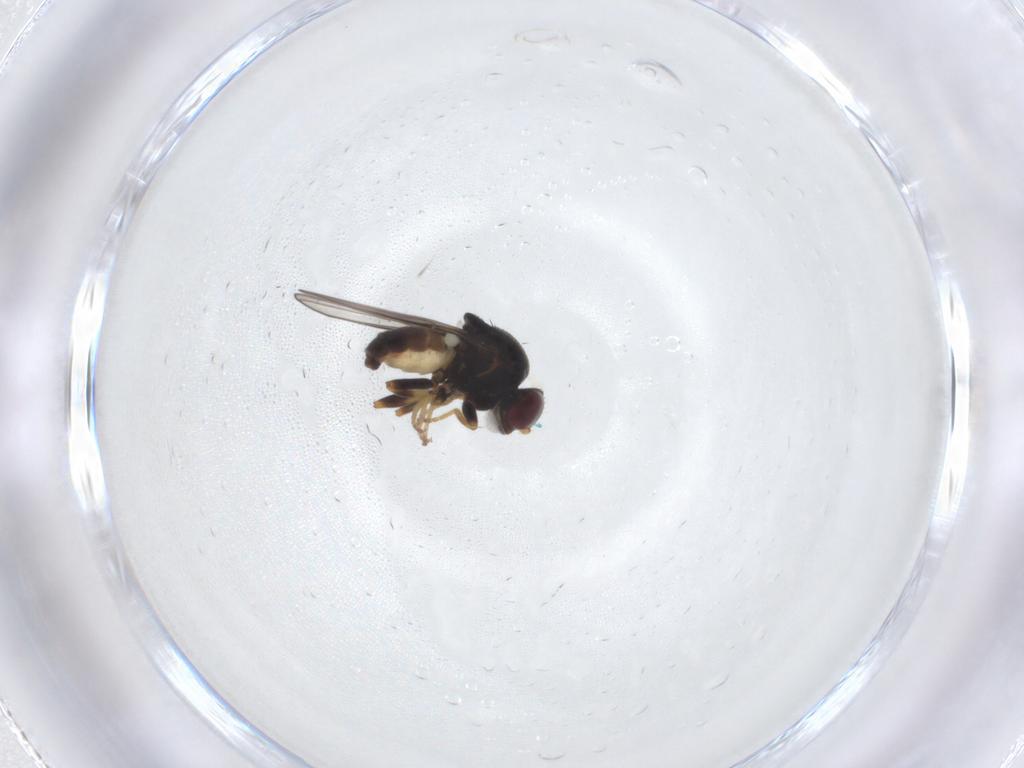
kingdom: Animalia
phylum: Arthropoda
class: Insecta
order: Diptera
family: Chloropidae
